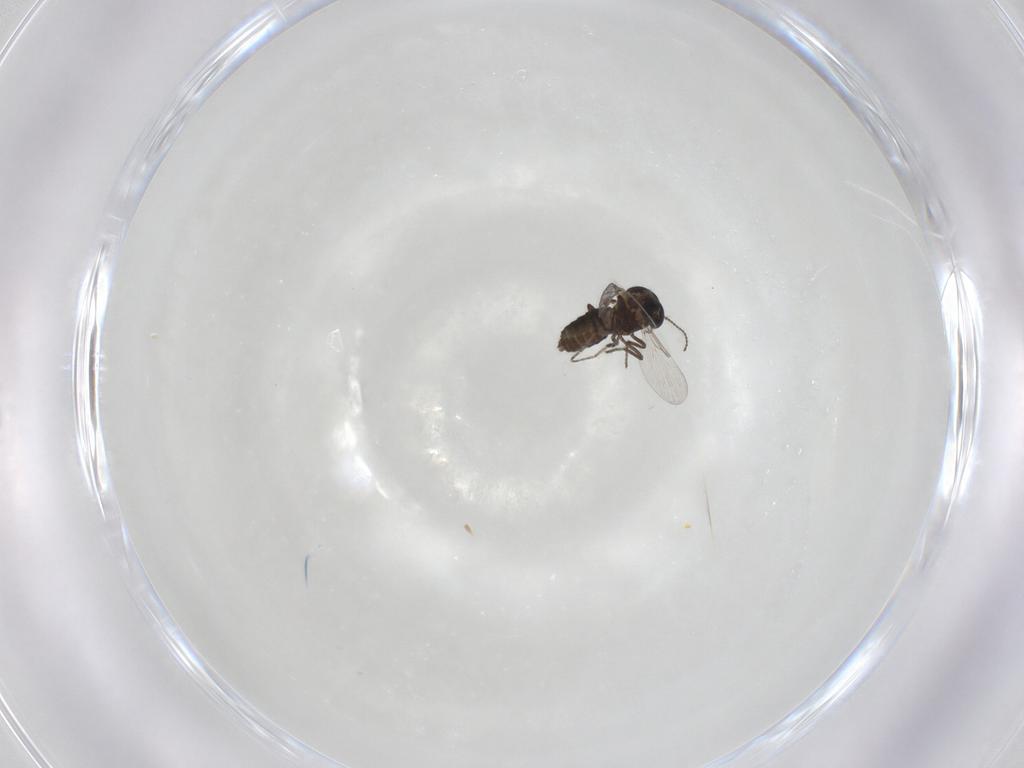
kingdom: Animalia
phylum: Arthropoda
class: Insecta
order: Diptera
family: Ceratopogonidae
